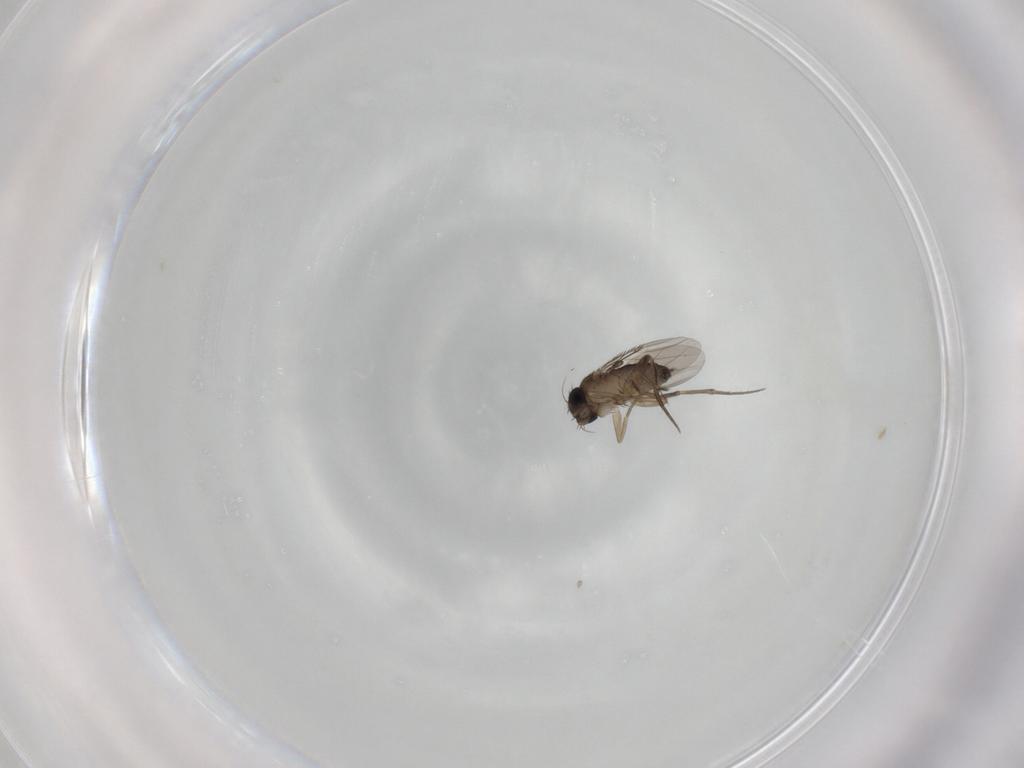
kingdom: Animalia
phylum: Arthropoda
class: Insecta
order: Diptera
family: Phoridae
